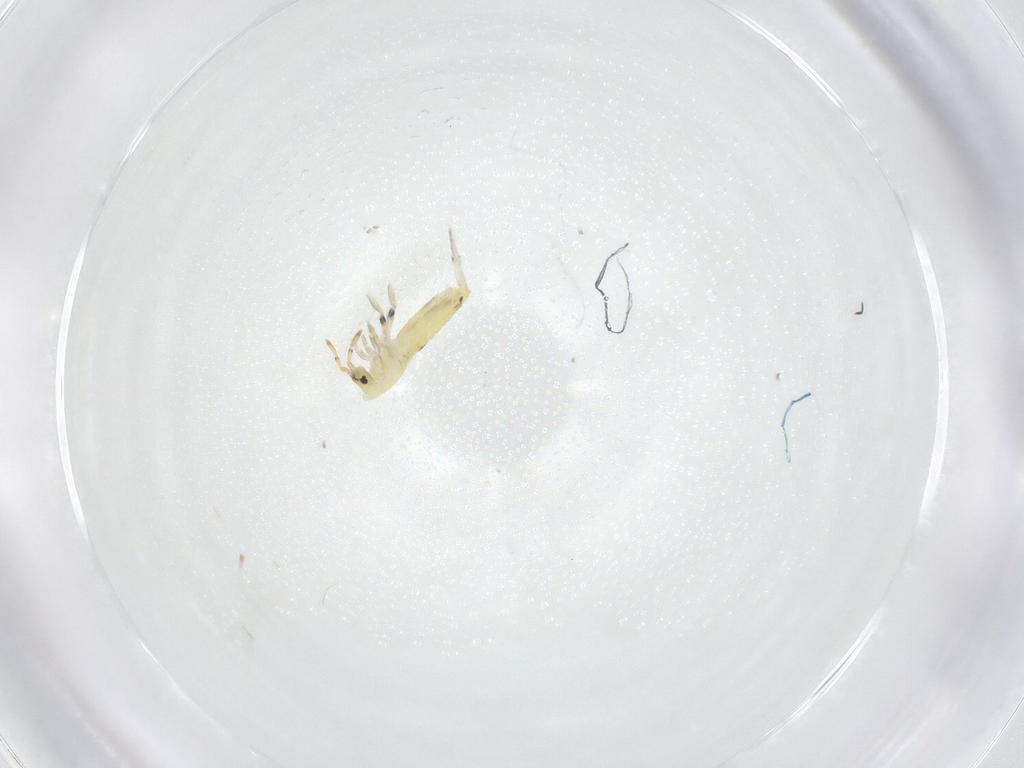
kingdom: Animalia
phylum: Arthropoda
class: Collembola
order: Entomobryomorpha
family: Entomobryidae
